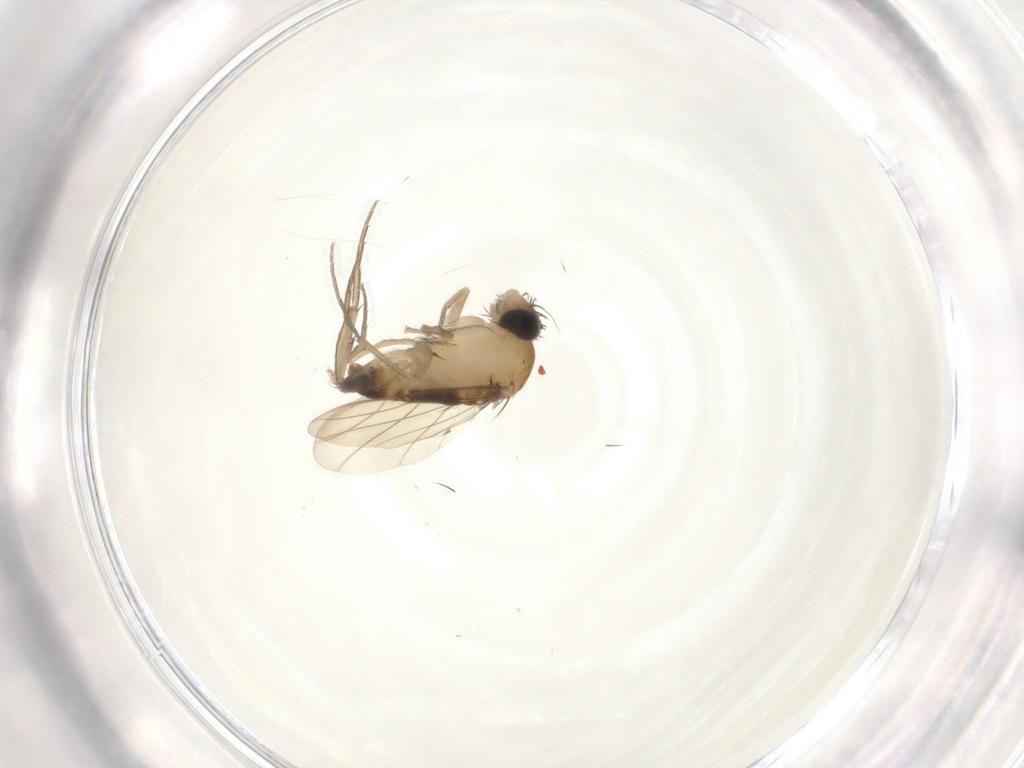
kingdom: Animalia
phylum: Arthropoda
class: Insecta
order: Diptera
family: Phoridae
